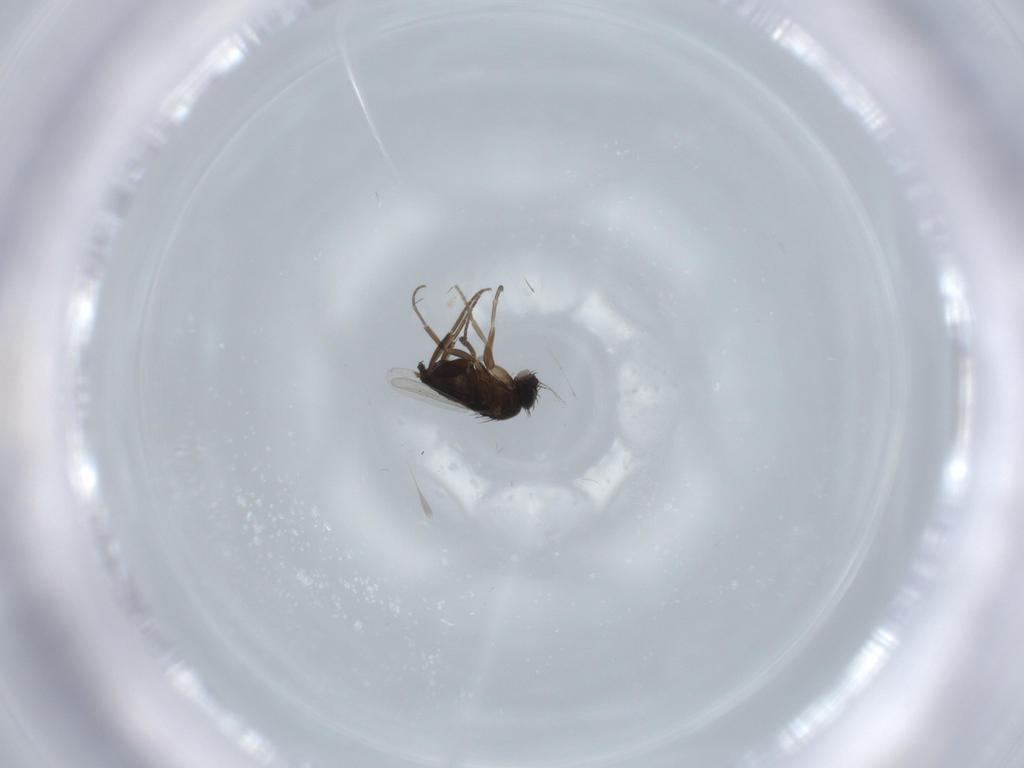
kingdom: Animalia
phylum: Arthropoda
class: Insecta
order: Diptera
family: Phoridae
